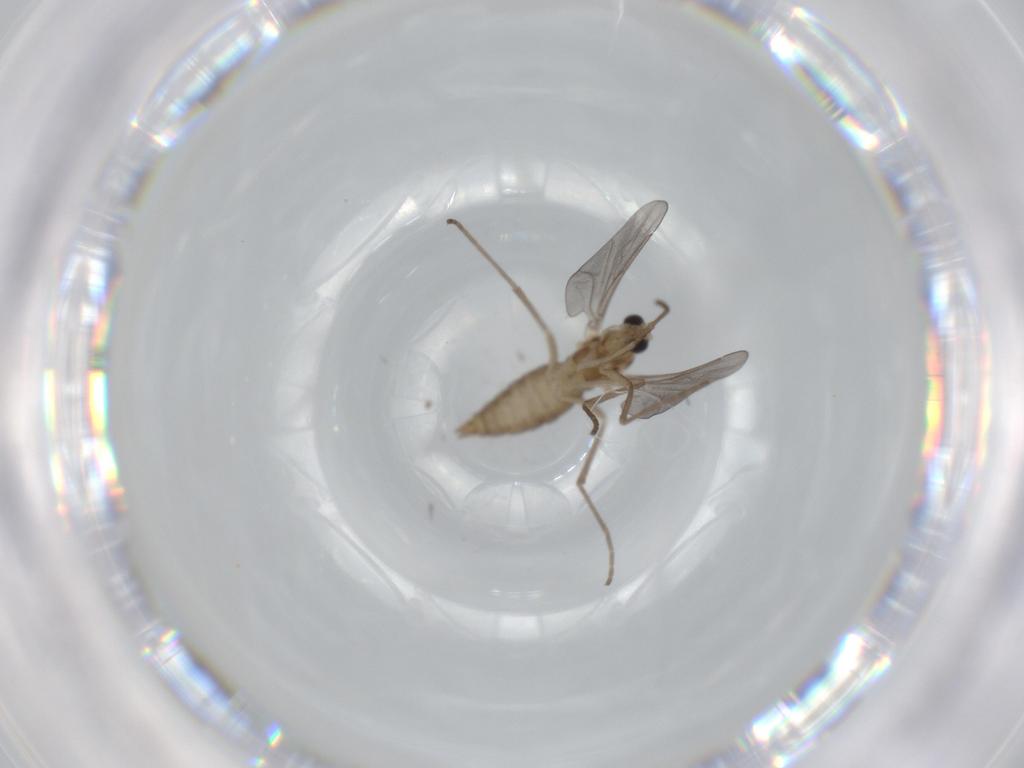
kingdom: Animalia
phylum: Arthropoda
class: Insecta
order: Diptera
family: Cecidomyiidae
